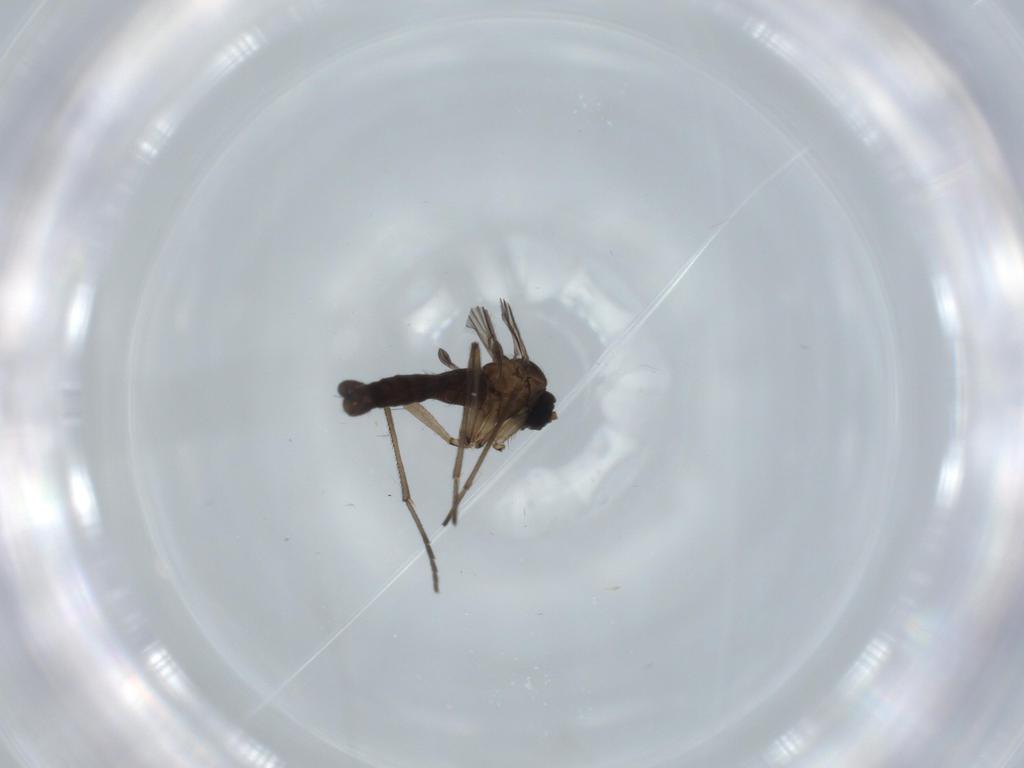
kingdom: Animalia
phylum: Arthropoda
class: Insecta
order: Diptera
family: Sciaridae
